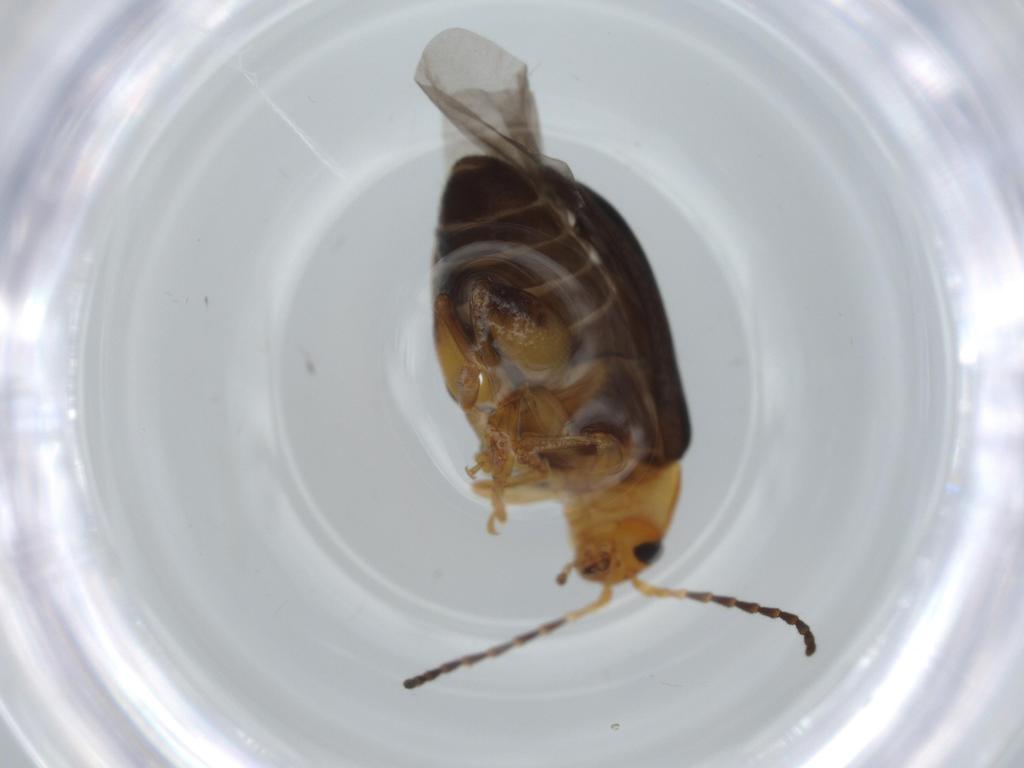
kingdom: Animalia
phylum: Arthropoda
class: Insecta
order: Coleoptera
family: Chrysomelidae
